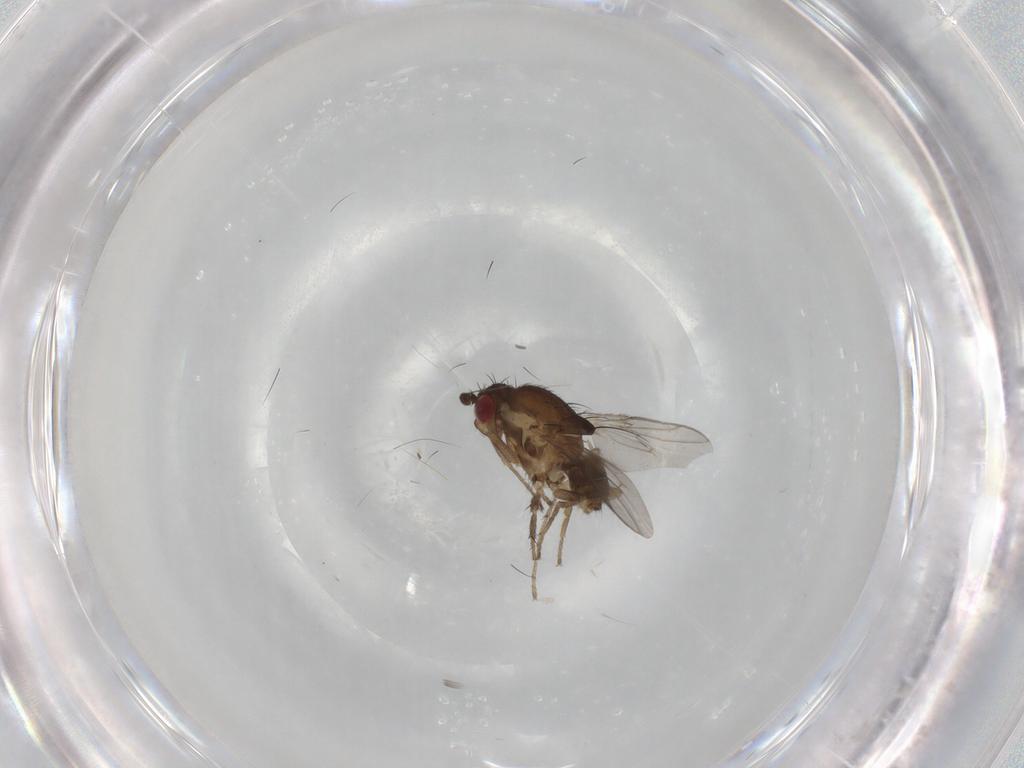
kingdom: Animalia
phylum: Arthropoda
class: Insecta
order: Diptera
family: Sphaeroceridae
